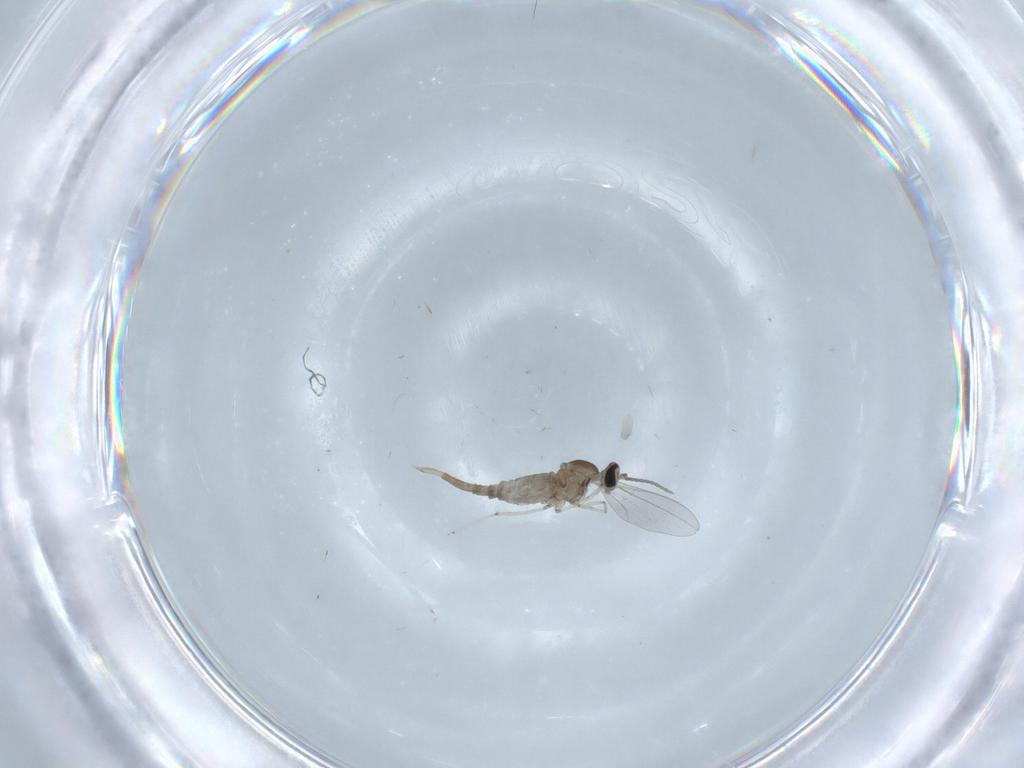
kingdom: Animalia
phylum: Arthropoda
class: Insecta
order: Diptera
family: Cecidomyiidae
